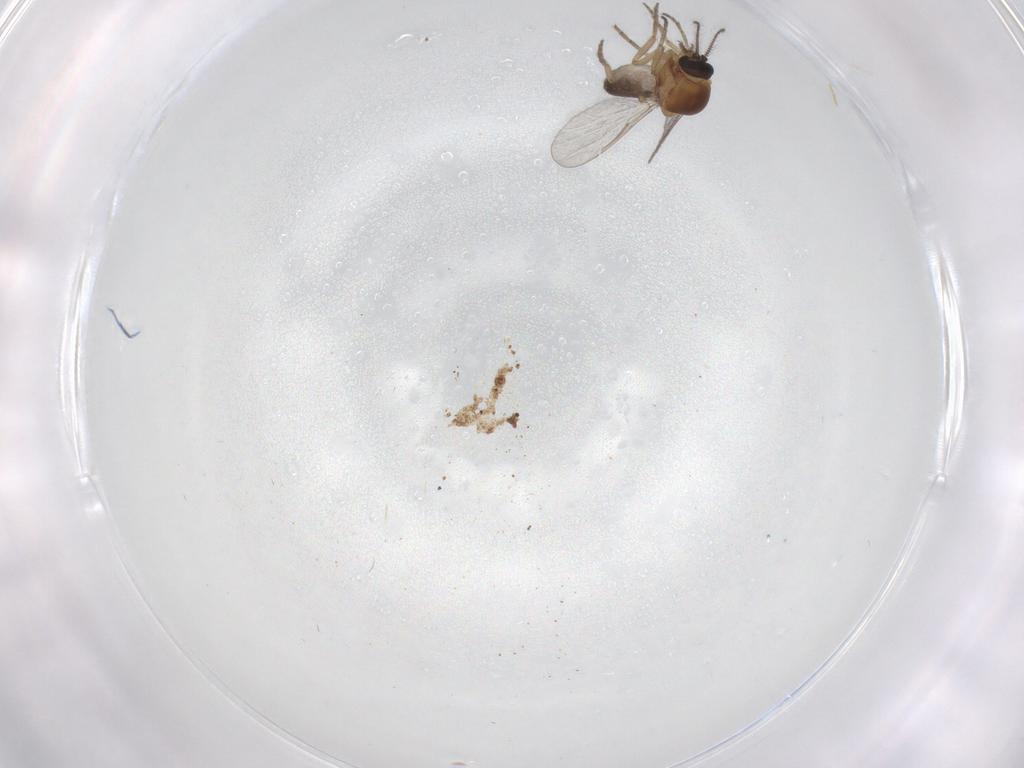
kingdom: Animalia
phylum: Arthropoda
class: Insecta
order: Diptera
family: Ceratopogonidae
